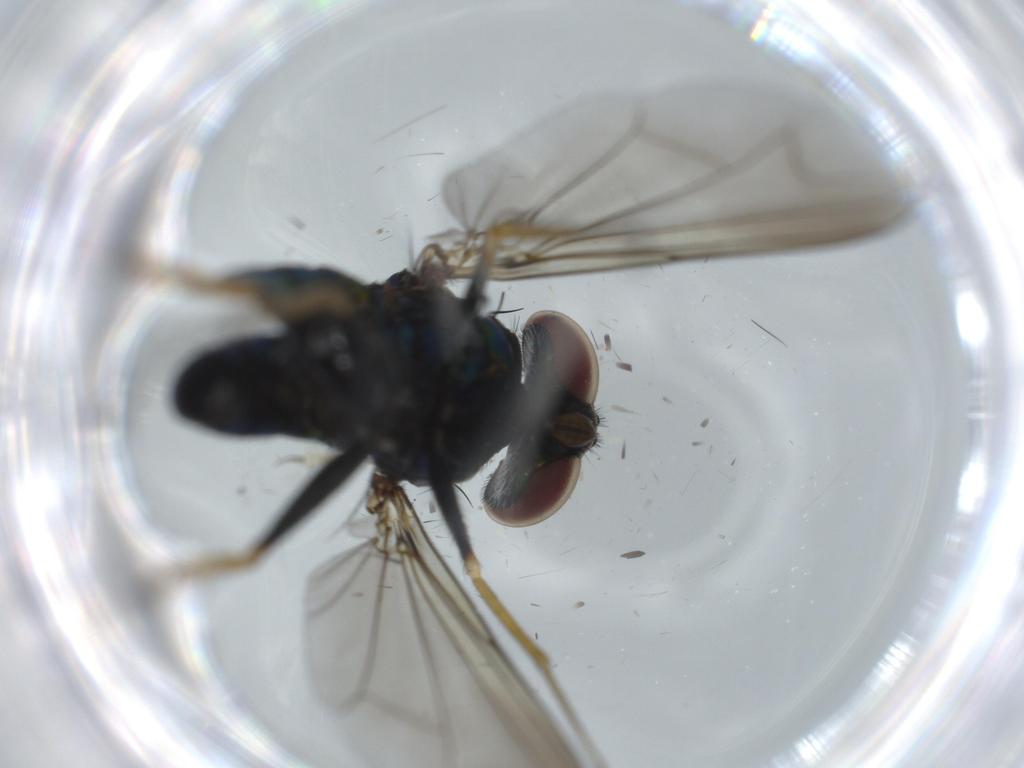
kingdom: Animalia
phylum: Arthropoda
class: Insecta
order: Diptera
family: Dolichopodidae
